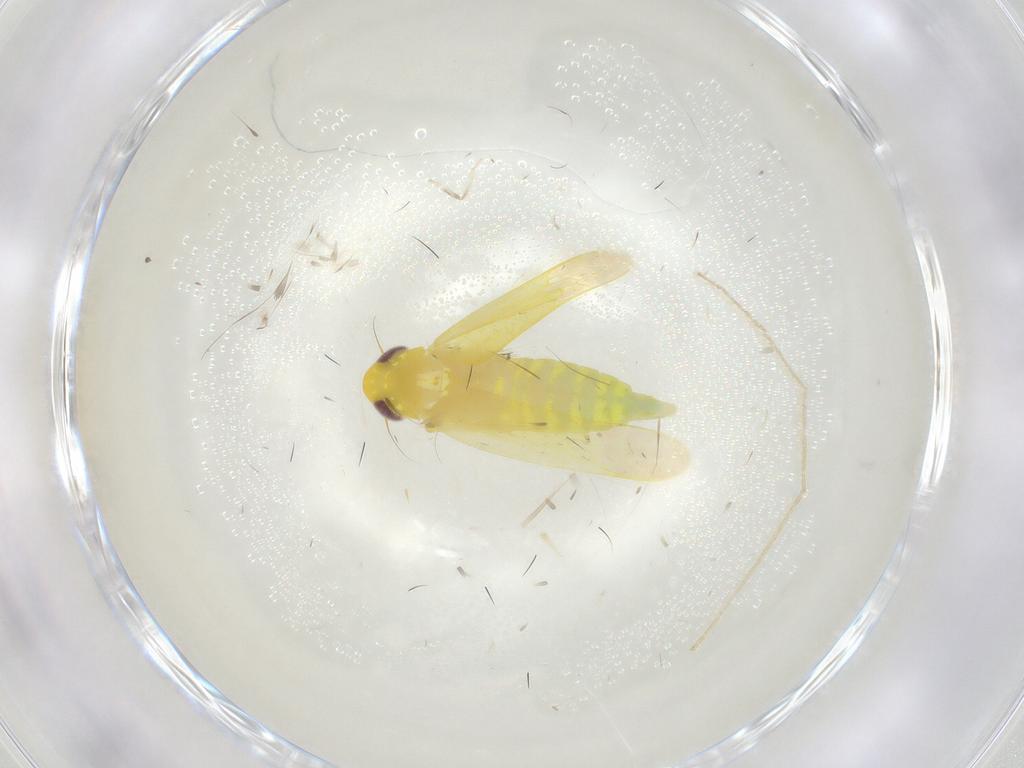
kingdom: Animalia
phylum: Arthropoda
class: Insecta
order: Hemiptera
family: Cicadellidae
